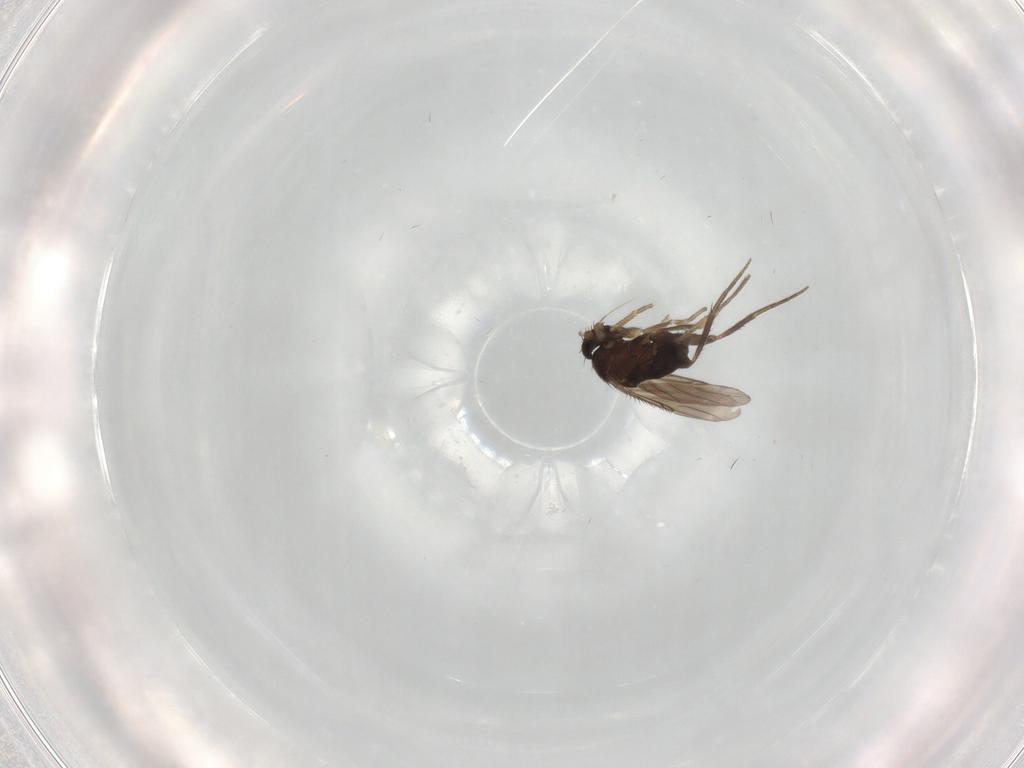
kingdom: Animalia
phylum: Arthropoda
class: Insecta
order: Diptera
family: Phoridae
